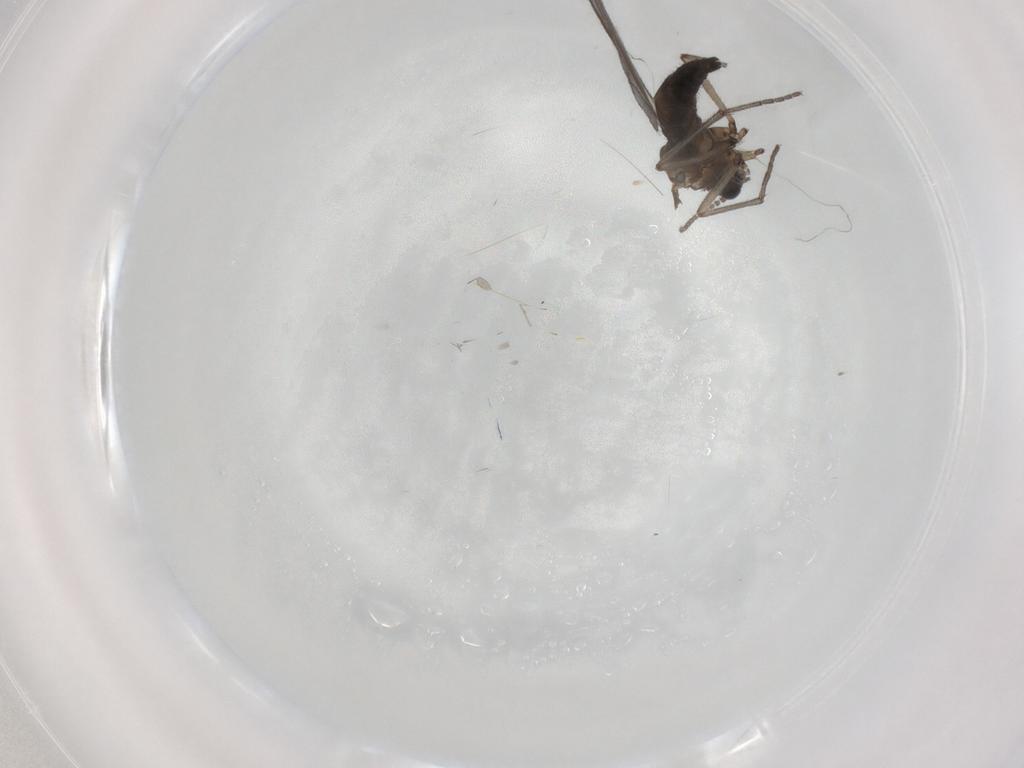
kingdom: Animalia
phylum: Arthropoda
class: Insecta
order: Diptera
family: Sciaridae
